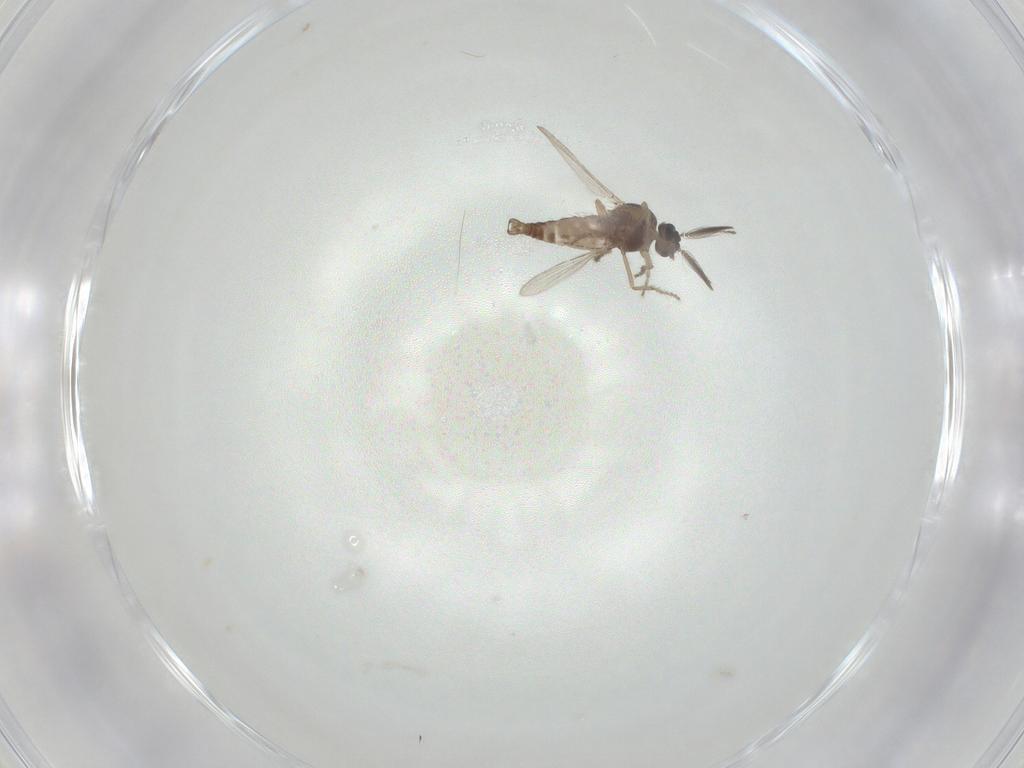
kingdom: Animalia
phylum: Arthropoda
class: Insecta
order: Diptera
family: Ceratopogonidae
